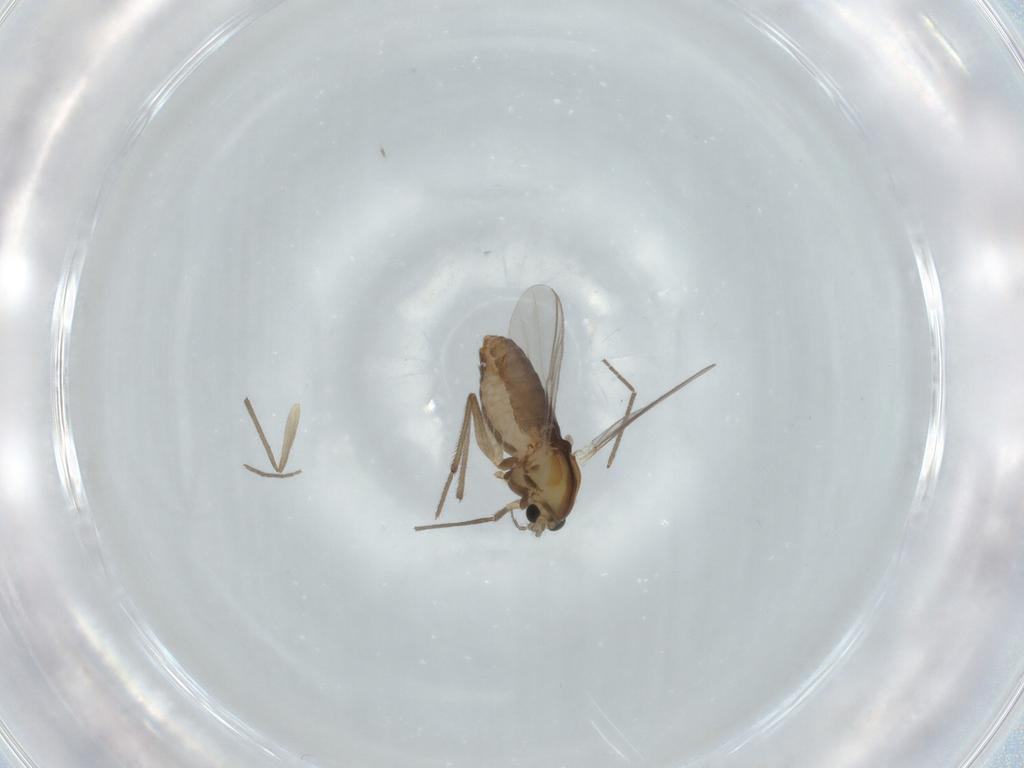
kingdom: Animalia
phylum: Arthropoda
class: Insecta
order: Diptera
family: Chironomidae
